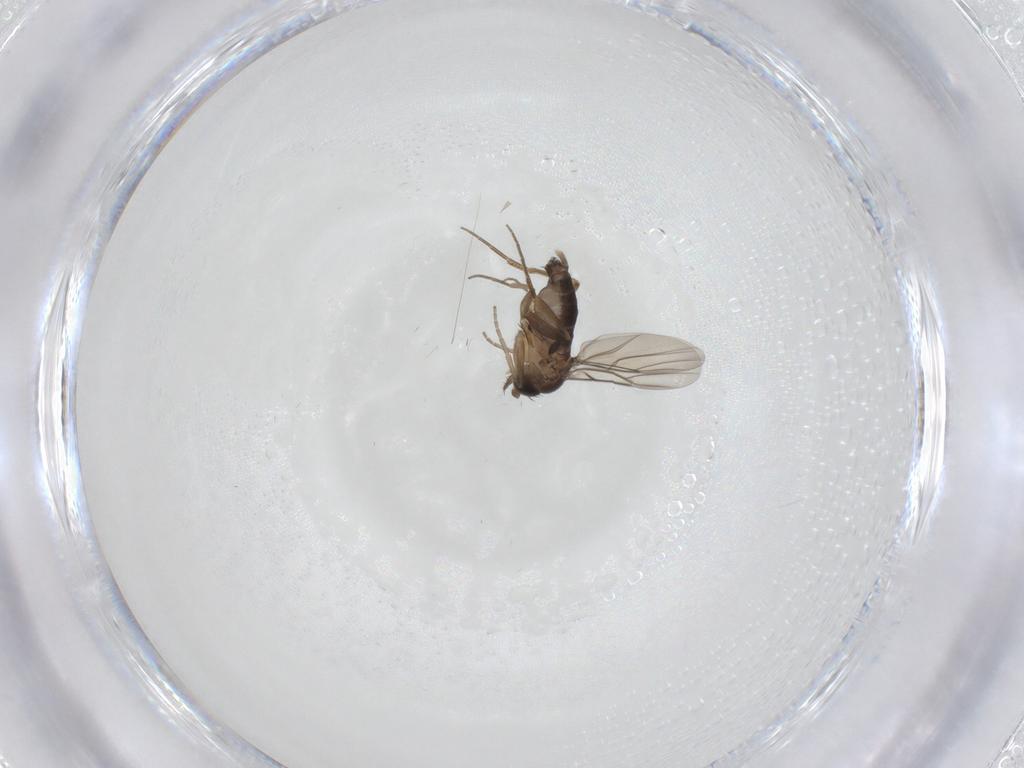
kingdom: Animalia
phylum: Arthropoda
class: Insecta
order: Diptera
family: Phoridae
